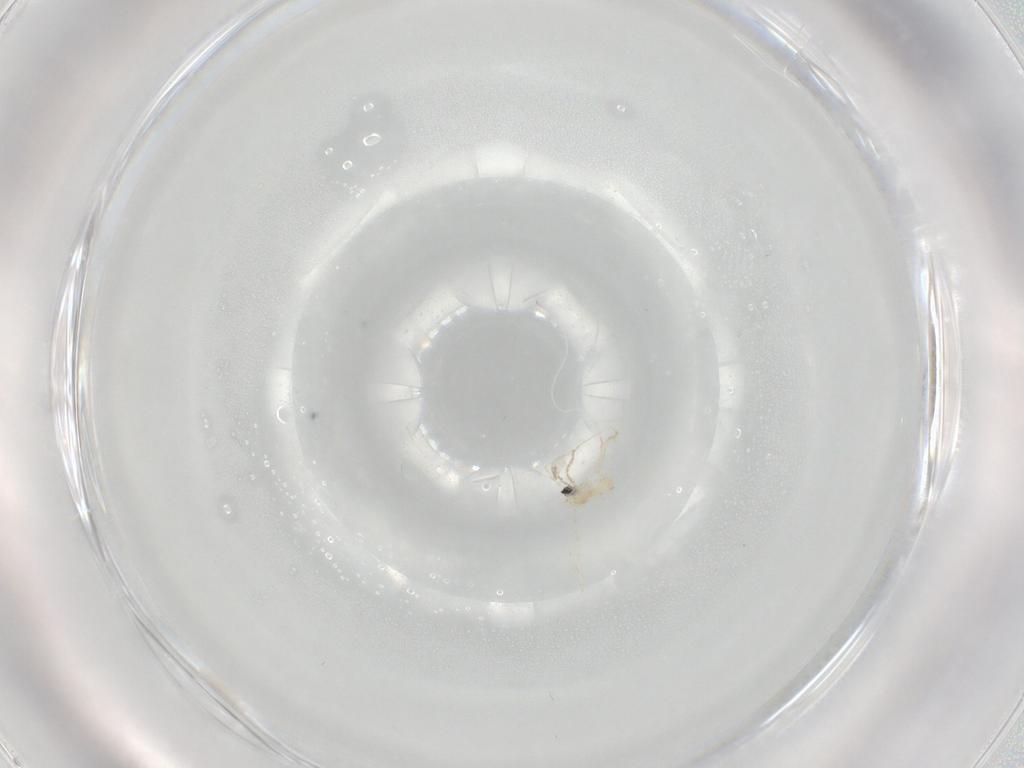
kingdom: Animalia
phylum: Arthropoda
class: Insecta
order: Diptera
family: Cecidomyiidae
